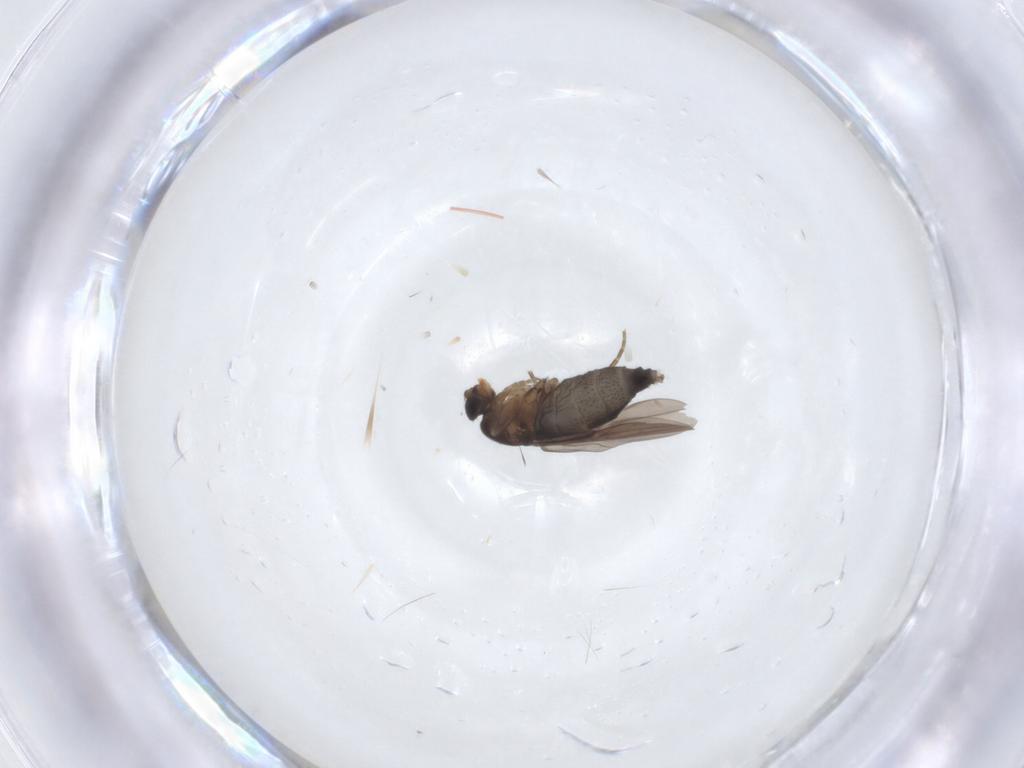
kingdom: Animalia
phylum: Arthropoda
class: Insecta
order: Diptera
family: Phoridae
